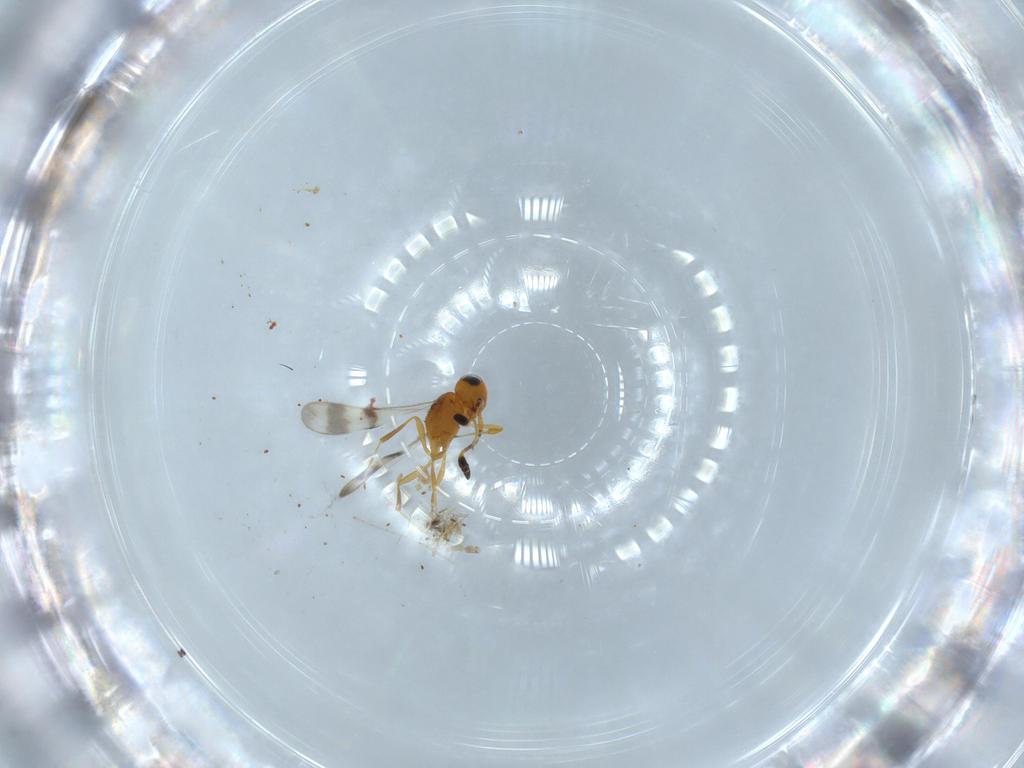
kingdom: Animalia
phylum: Arthropoda
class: Insecta
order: Hymenoptera
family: Scelionidae
